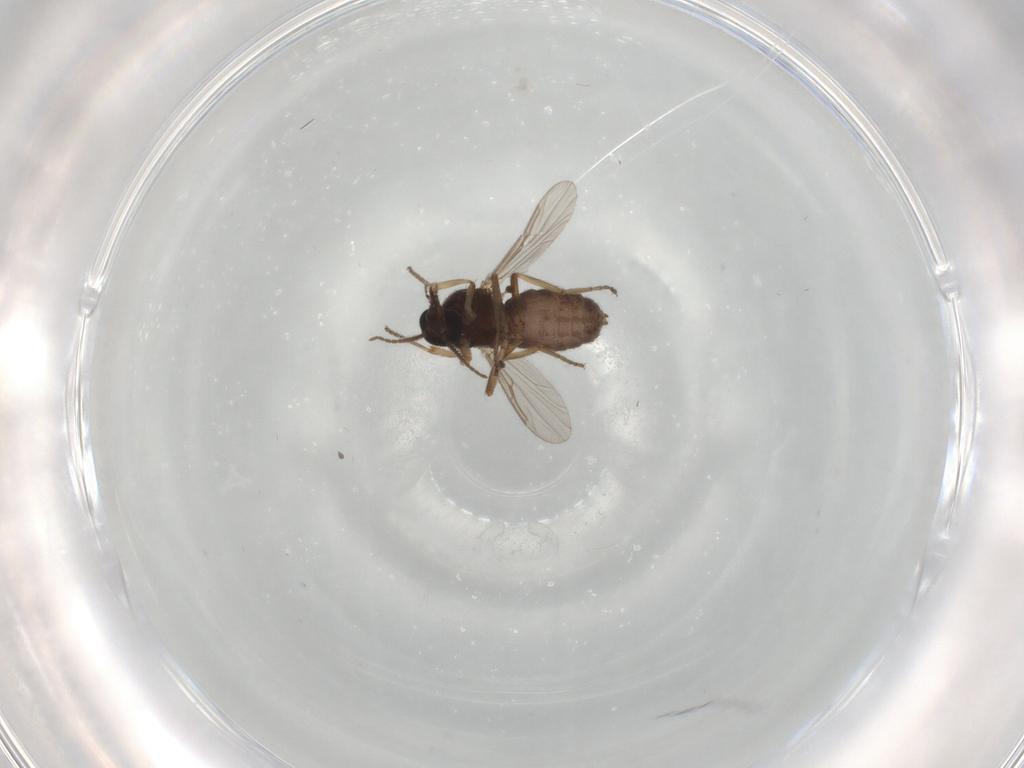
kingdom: Animalia
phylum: Arthropoda
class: Insecta
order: Diptera
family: Ceratopogonidae
